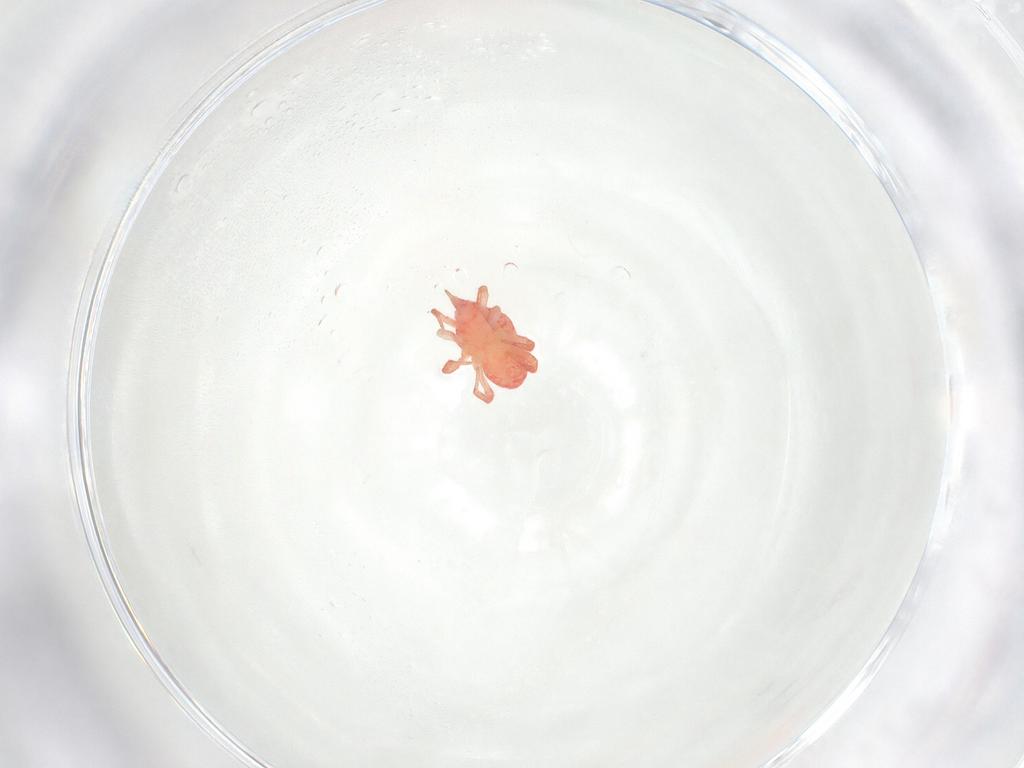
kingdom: Animalia
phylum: Arthropoda
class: Arachnida
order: Trombidiformes
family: Bdellidae
